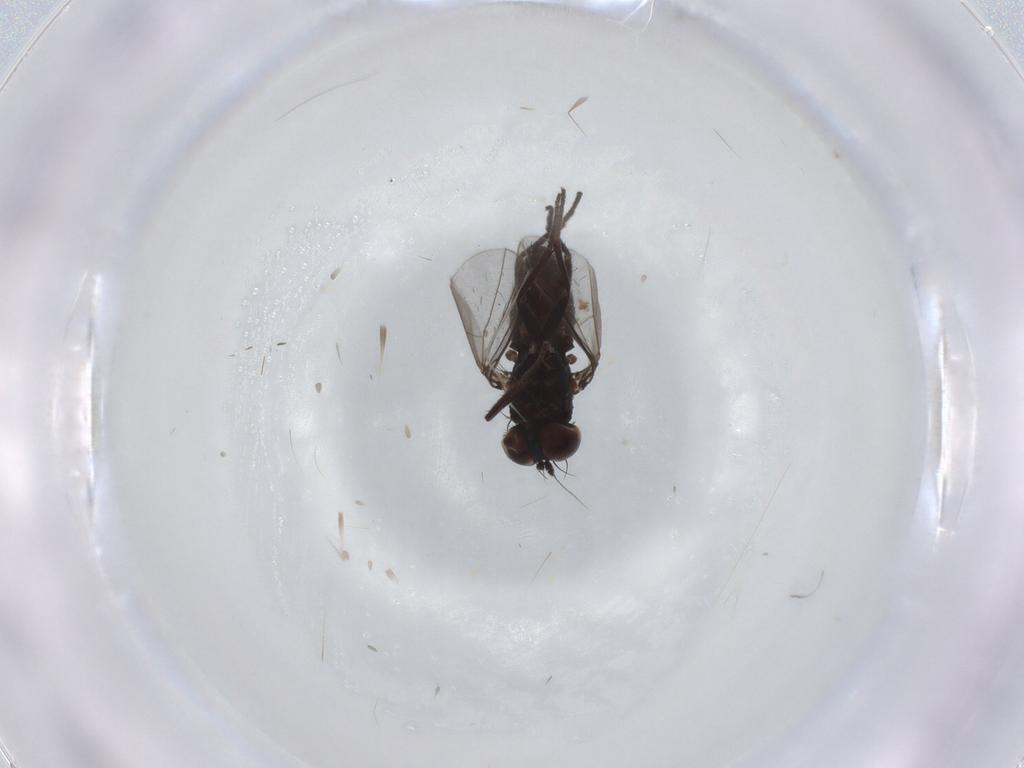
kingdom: Animalia
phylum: Arthropoda
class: Insecta
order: Diptera
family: Dolichopodidae
